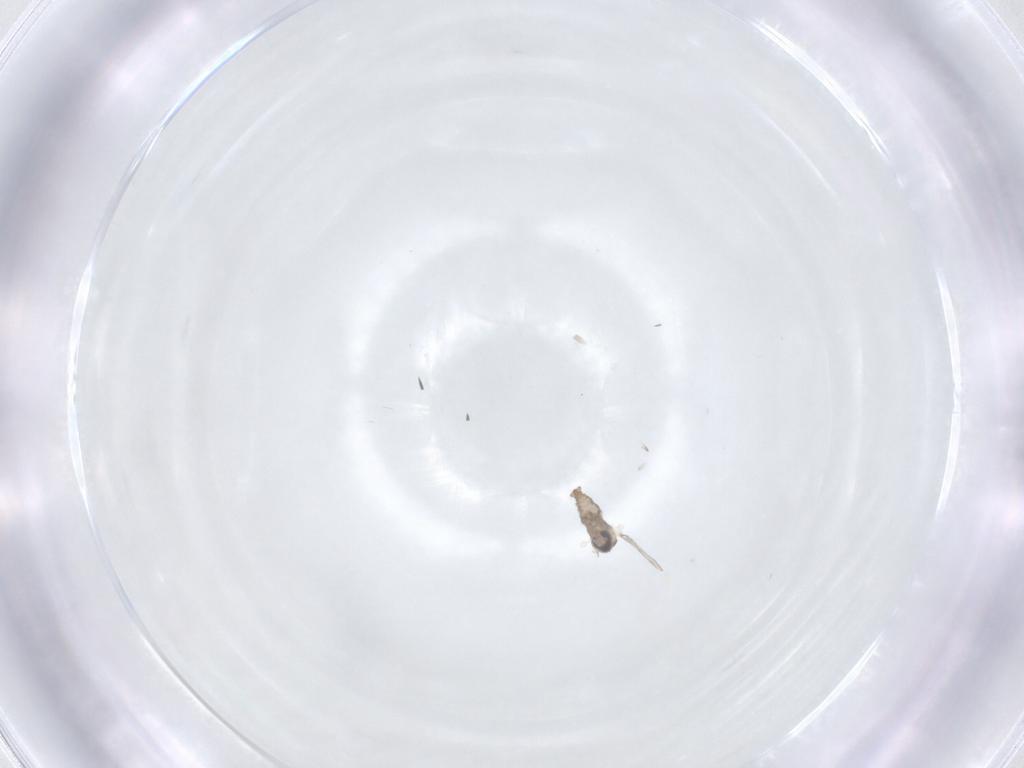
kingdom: Animalia
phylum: Arthropoda
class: Insecta
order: Diptera
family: Cecidomyiidae
